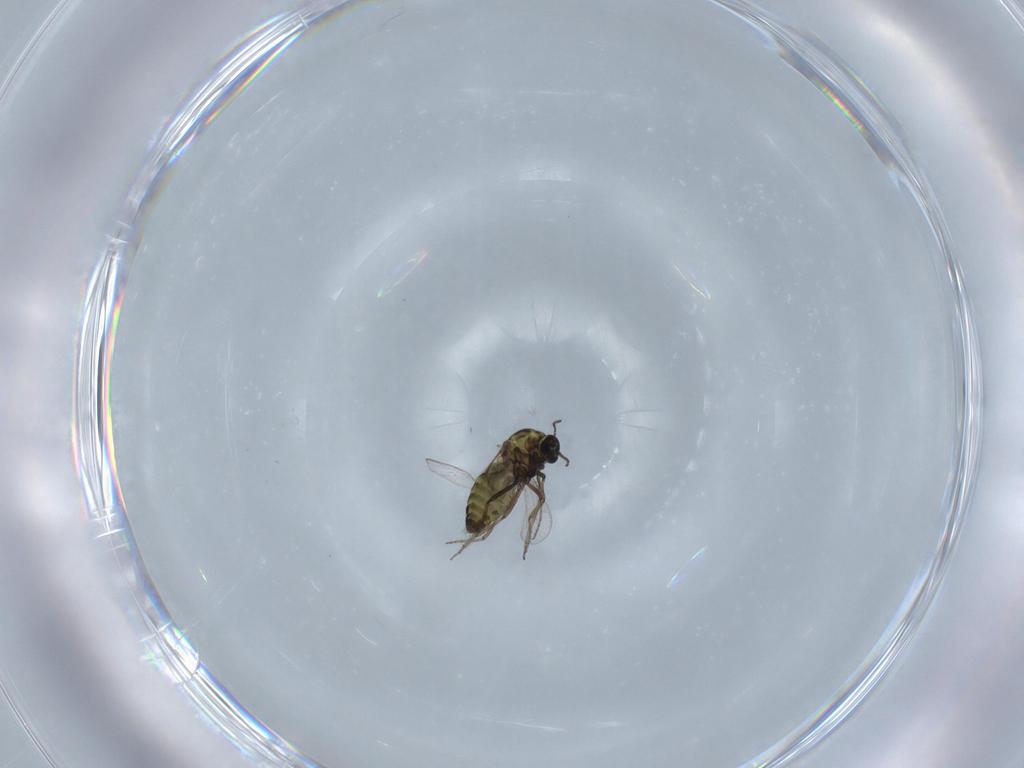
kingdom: Animalia
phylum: Arthropoda
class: Insecta
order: Diptera
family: Ceratopogonidae
